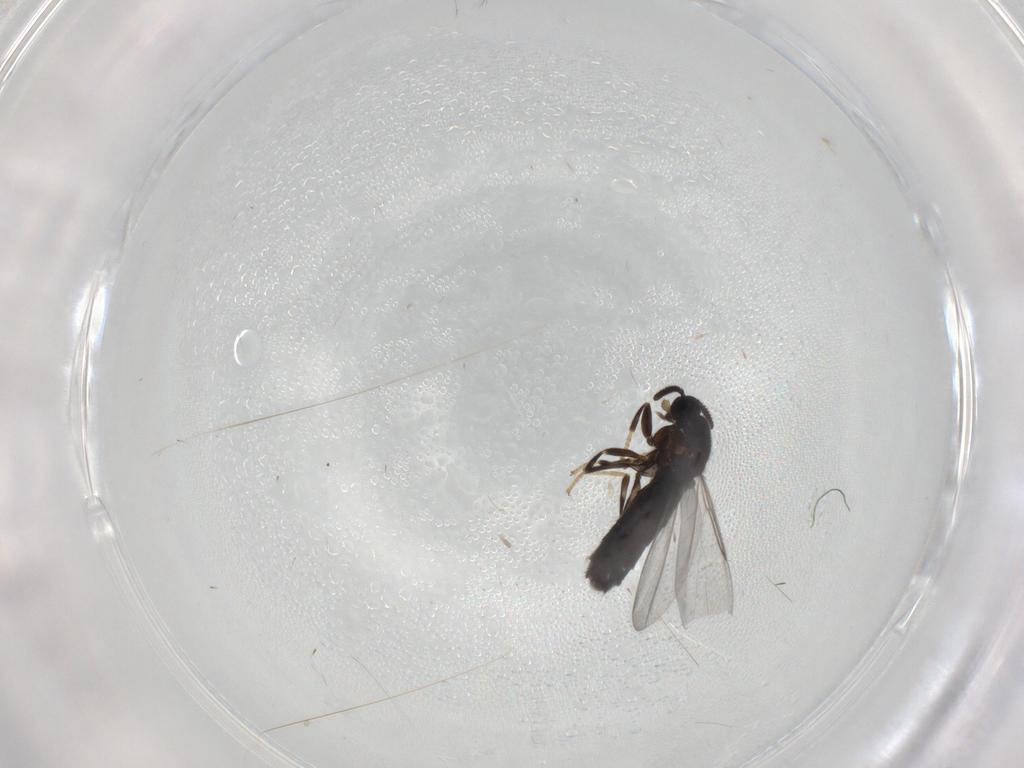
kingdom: Animalia
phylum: Arthropoda
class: Insecta
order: Diptera
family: Scatopsidae
